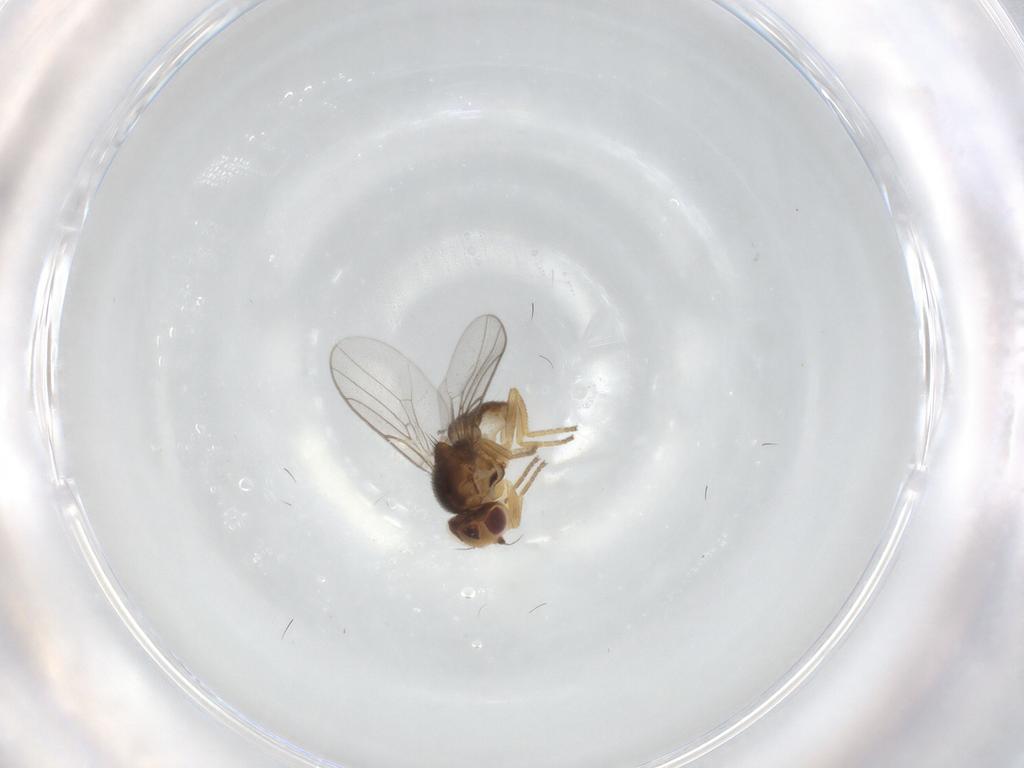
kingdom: Animalia
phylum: Arthropoda
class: Insecta
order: Diptera
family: Chloropidae
